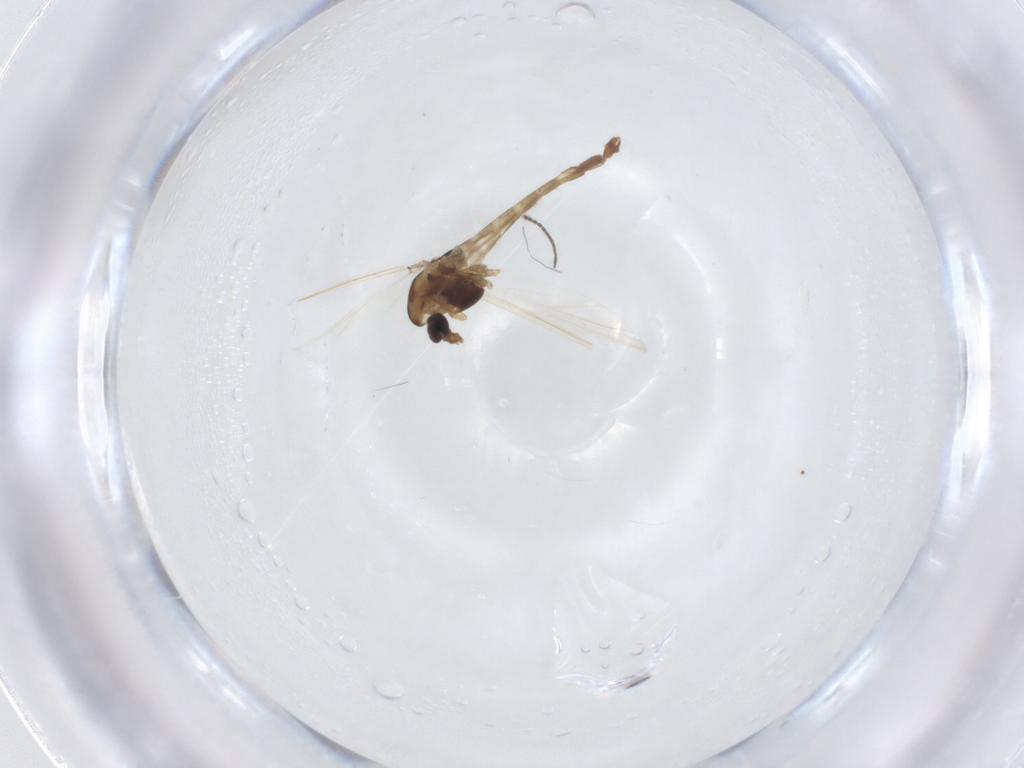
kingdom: Animalia
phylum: Arthropoda
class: Insecta
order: Diptera
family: Chironomidae
